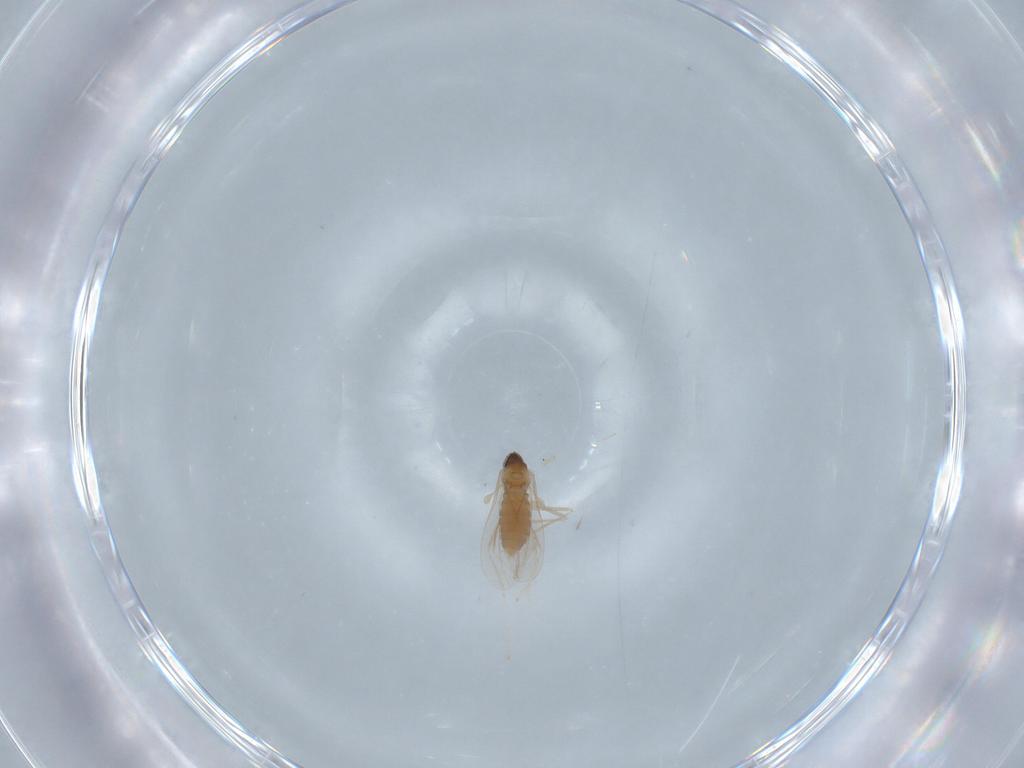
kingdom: Animalia
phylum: Arthropoda
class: Insecta
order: Diptera
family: Cecidomyiidae
